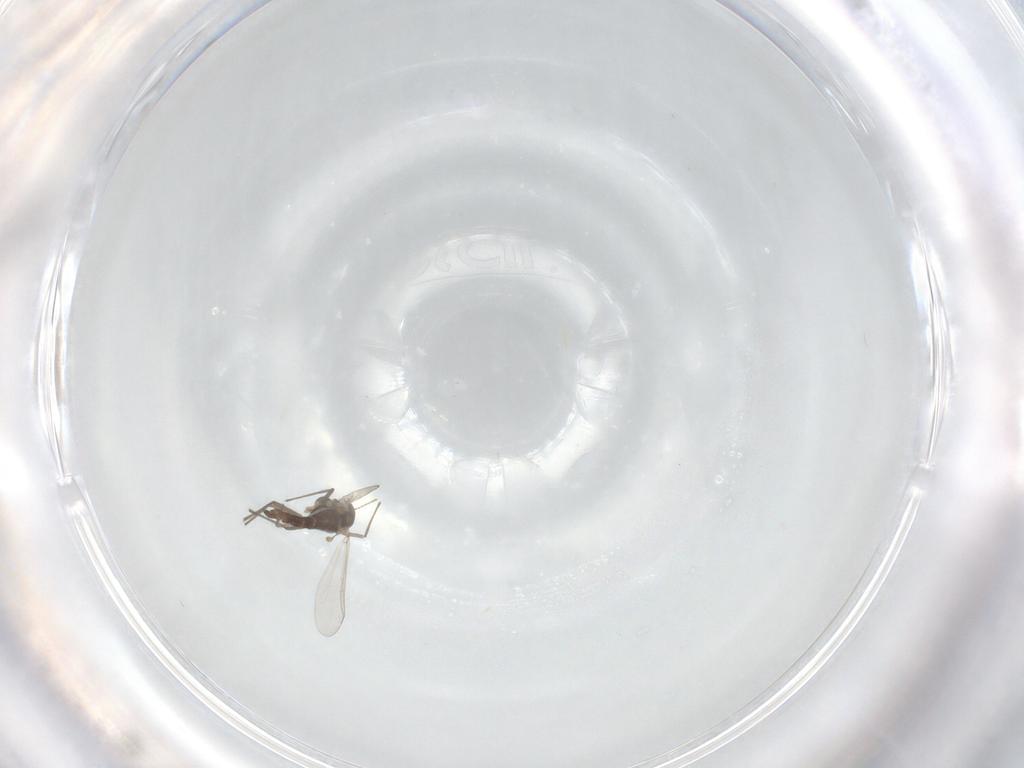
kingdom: Animalia
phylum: Arthropoda
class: Insecta
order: Diptera
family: Chironomidae
